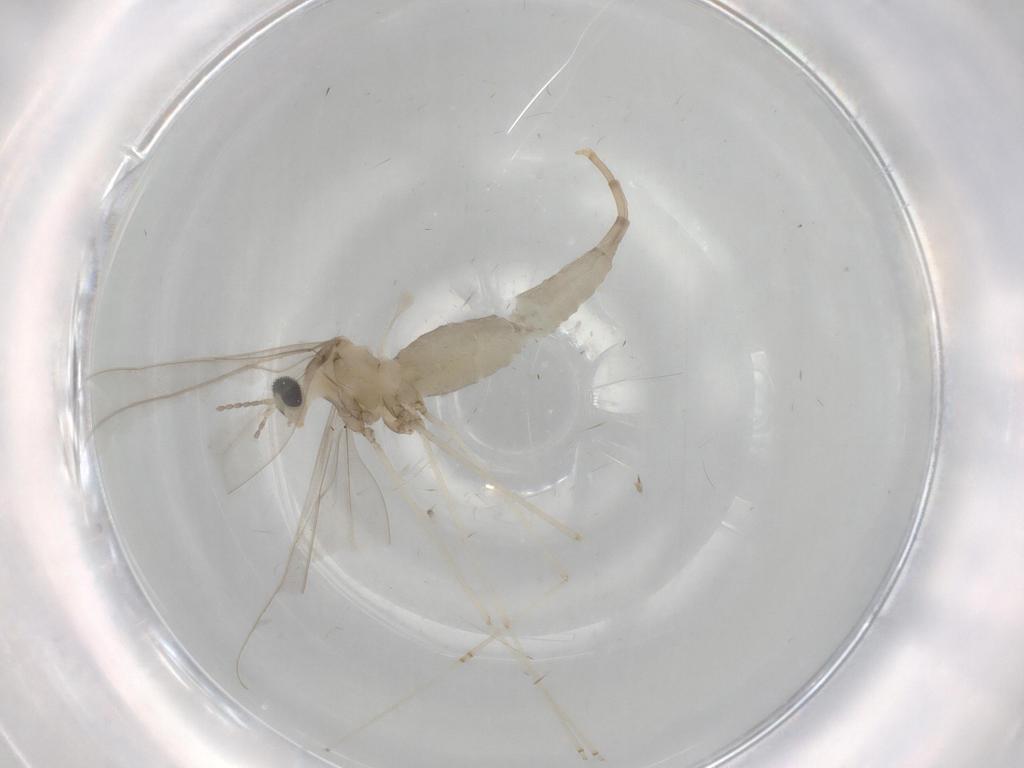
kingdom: Animalia
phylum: Arthropoda
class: Insecta
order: Diptera
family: Cecidomyiidae
